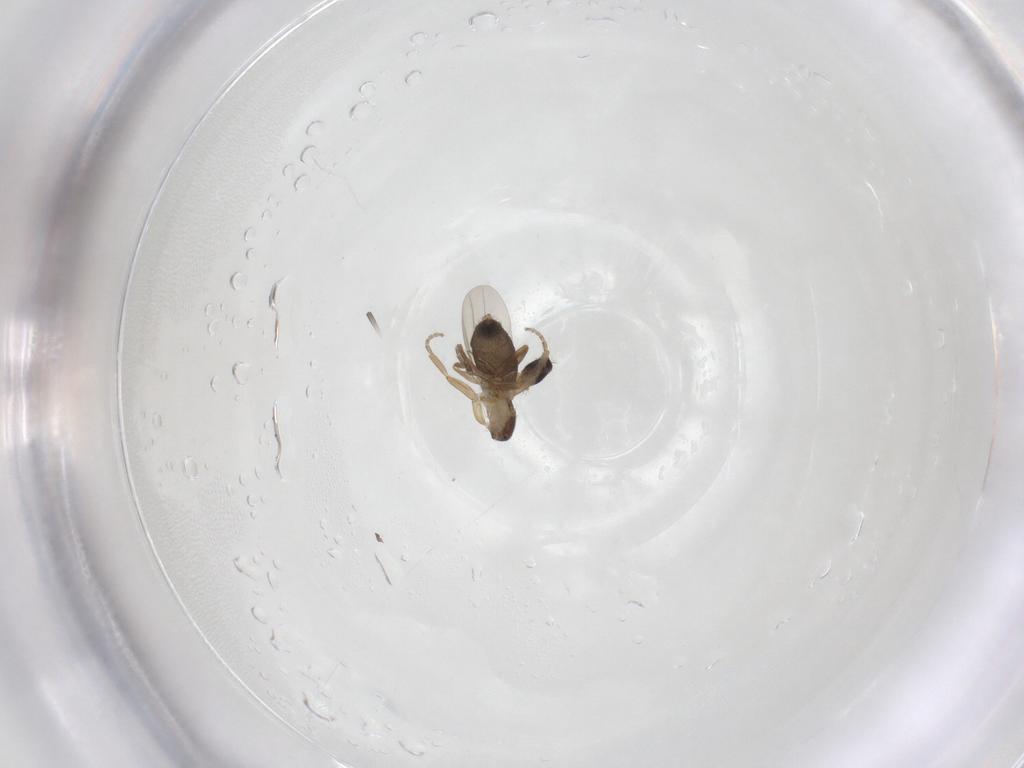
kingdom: Animalia
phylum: Arthropoda
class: Insecta
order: Diptera
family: Phoridae
